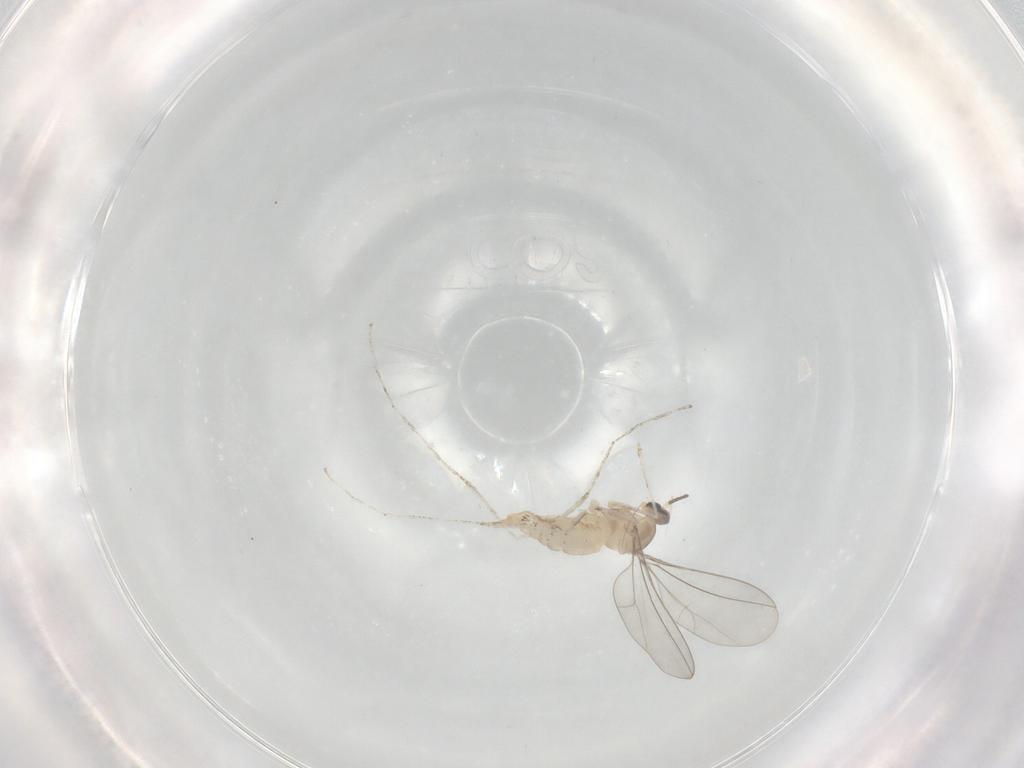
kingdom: Animalia
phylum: Arthropoda
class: Insecta
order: Diptera
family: Cecidomyiidae
